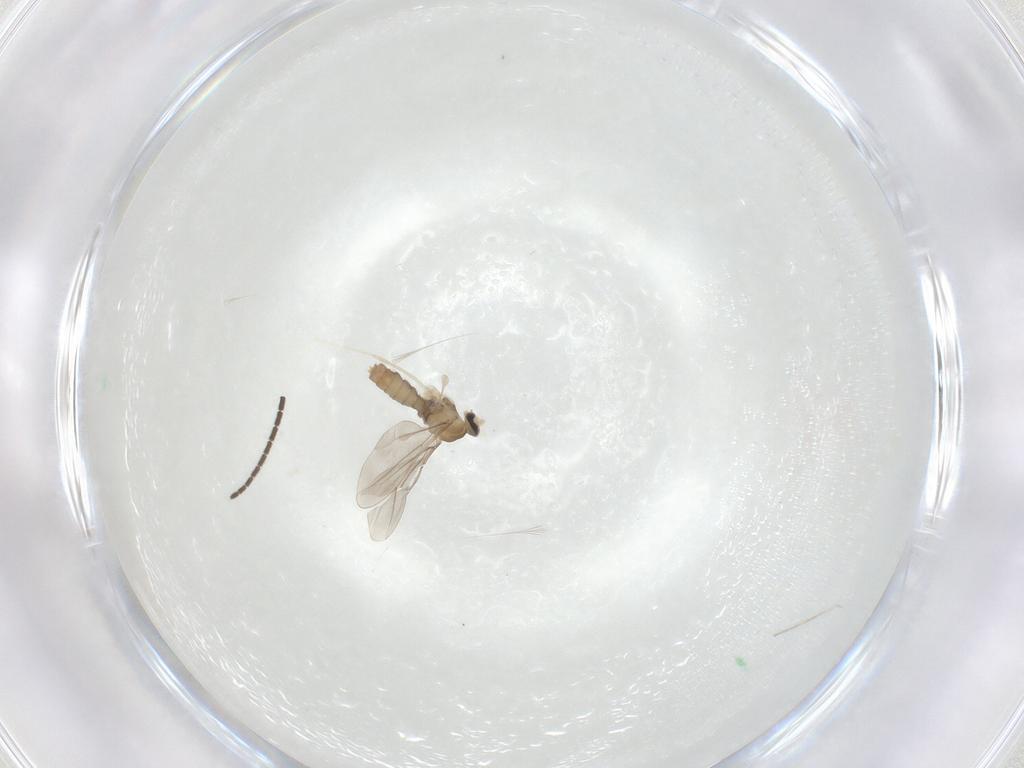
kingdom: Animalia
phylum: Arthropoda
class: Insecta
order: Diptera
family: Cecidomyiidae
